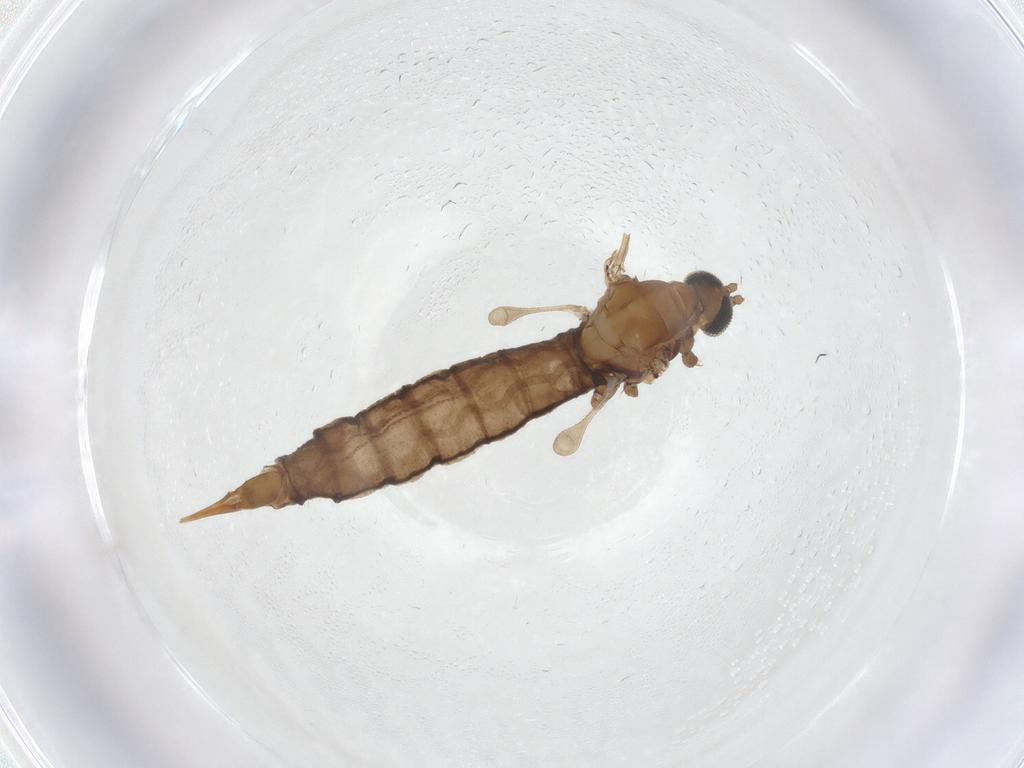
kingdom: Animalia
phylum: Arthropoda
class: Insecta
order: Diptera
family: Limoniidae
